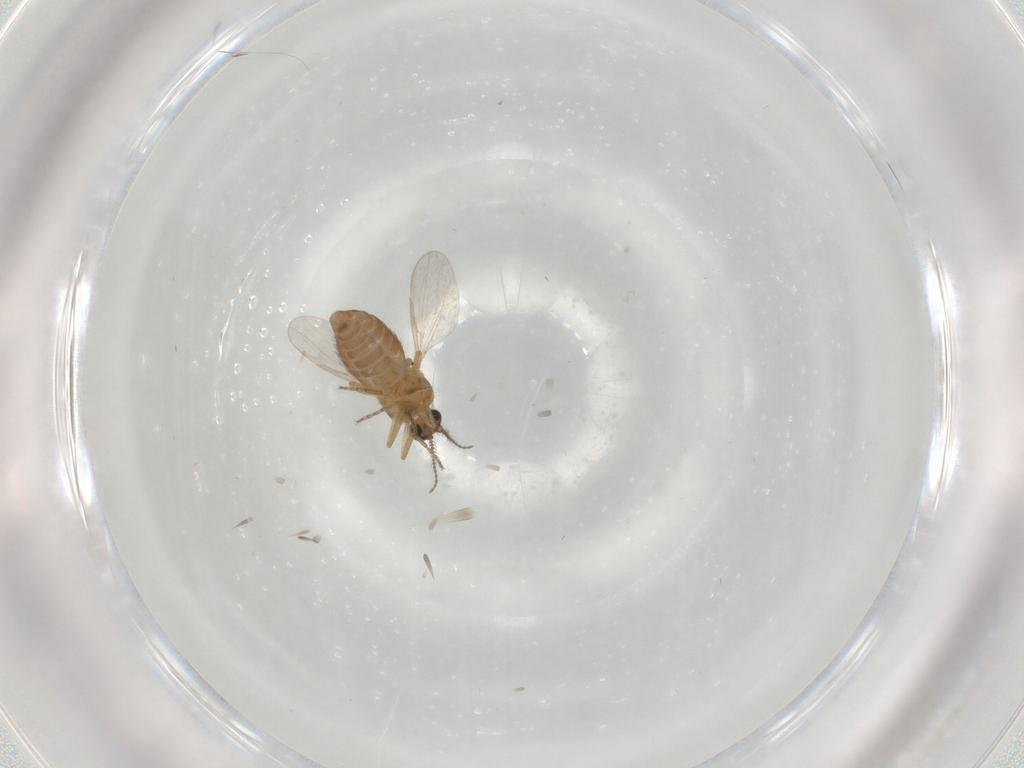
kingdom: Animalia
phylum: Arthropoda
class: Insecta
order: Diptera
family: Ceratopogonidae
